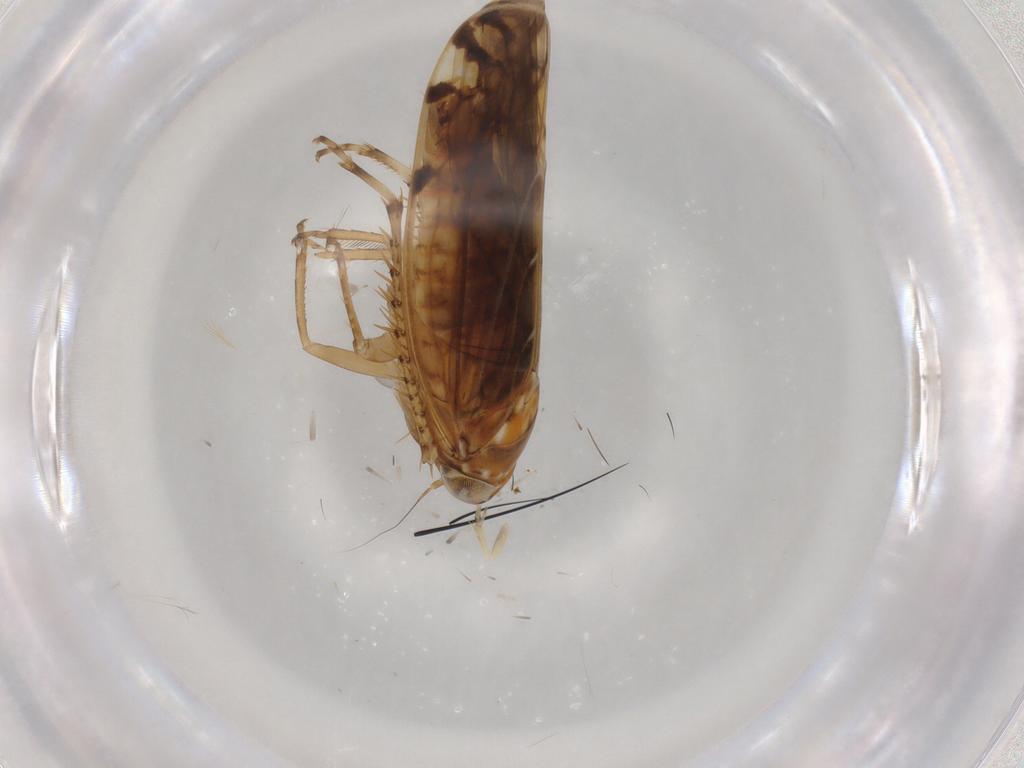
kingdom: Animalia
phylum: Arthropoda
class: Insecta
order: Hemiptera
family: Cicadellidae
